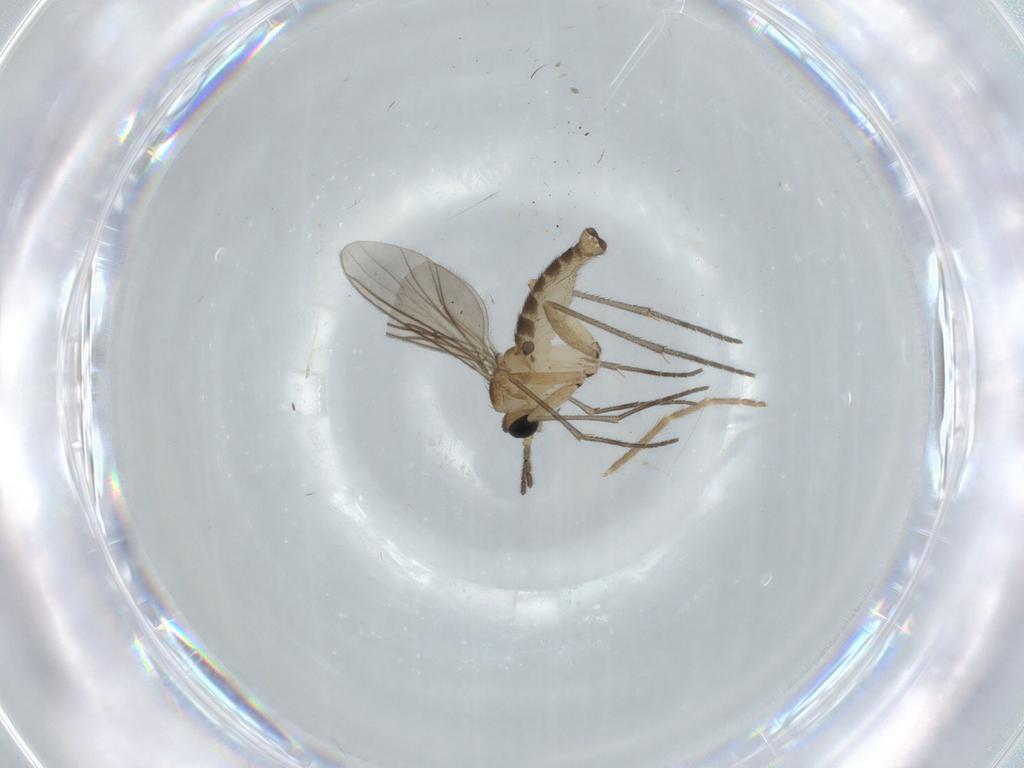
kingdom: Animalia
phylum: Arthropoda
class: Insecta
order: Diptera
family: Sciaridae
